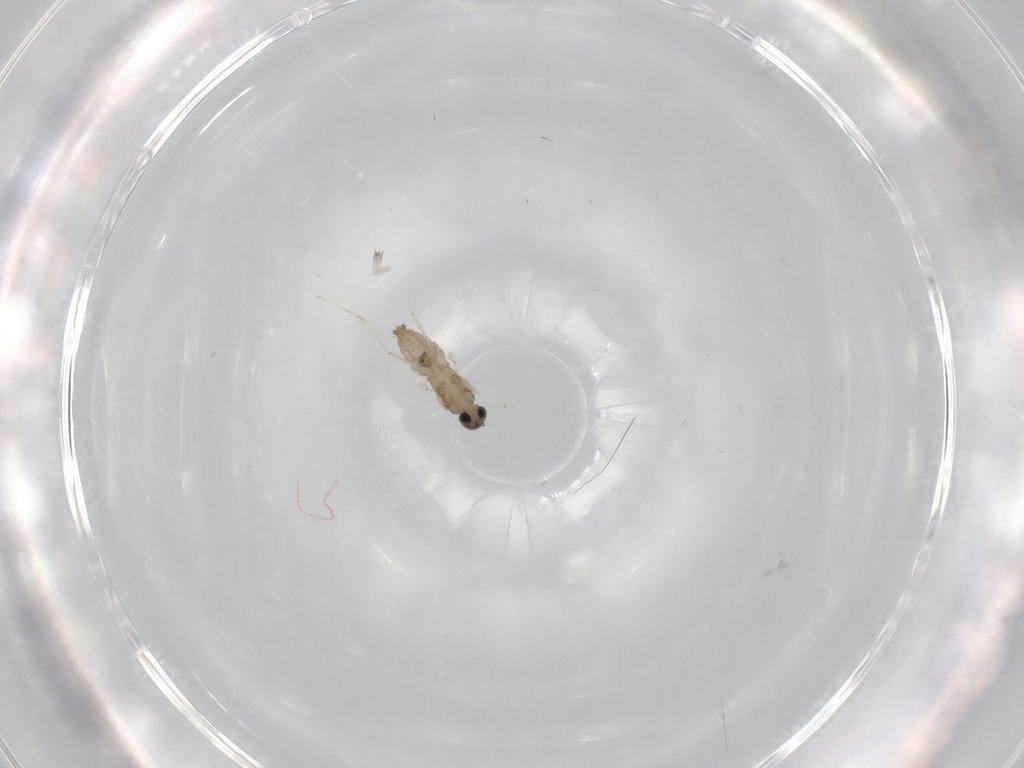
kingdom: Animalia
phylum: Arthropoda
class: Insecta
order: Diptera
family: Cecidomyiidae
